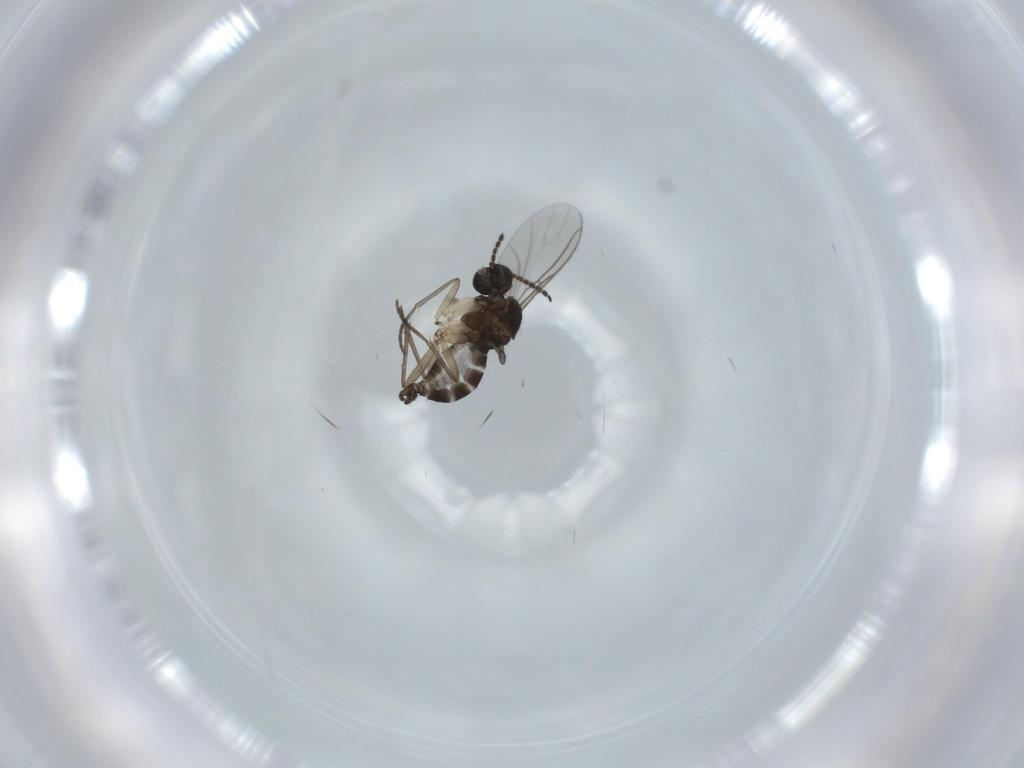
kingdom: Animalia
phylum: Arthropoda
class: Insecta
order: Diptera
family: Sciaridae
